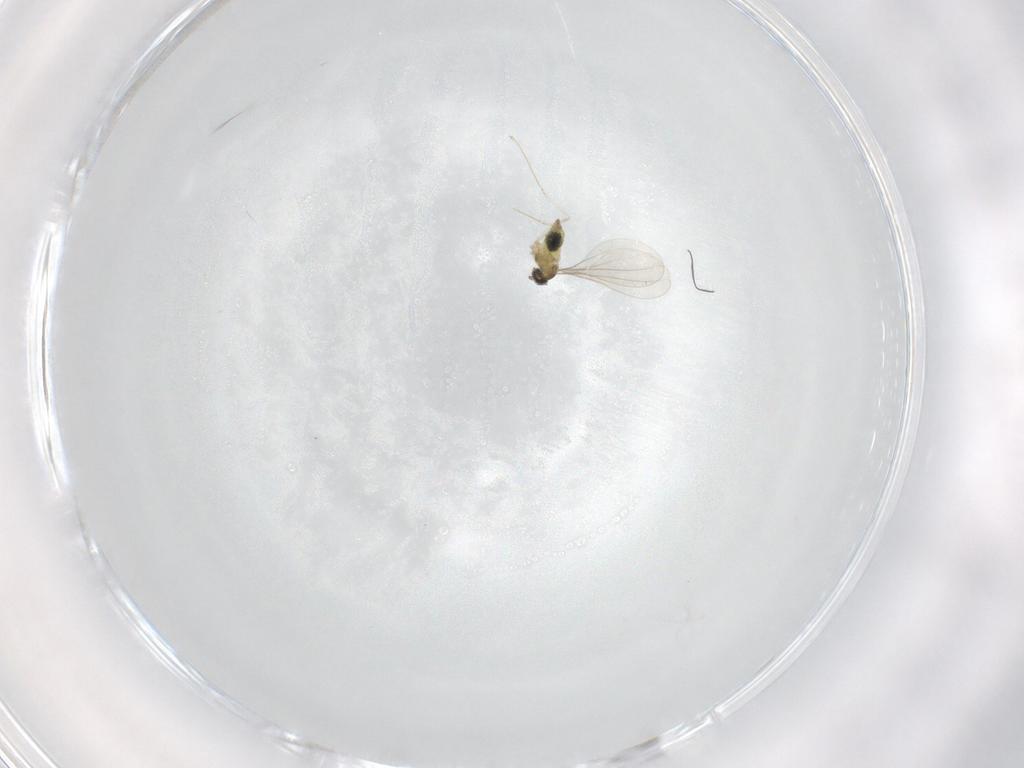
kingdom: Animalia
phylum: Arthropoda
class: Insecta
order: Diptera
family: Cecidomyiidae
